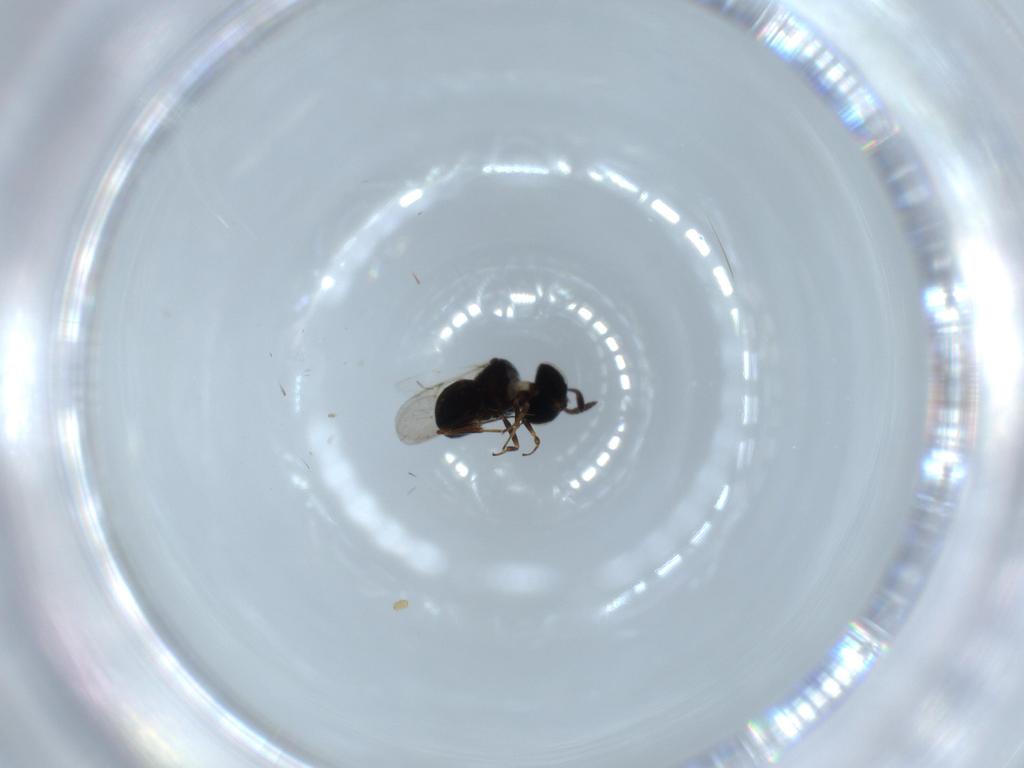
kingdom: Animalia
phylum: Arthropoda
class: Insecta
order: Hymenoptera
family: Scelionidae
